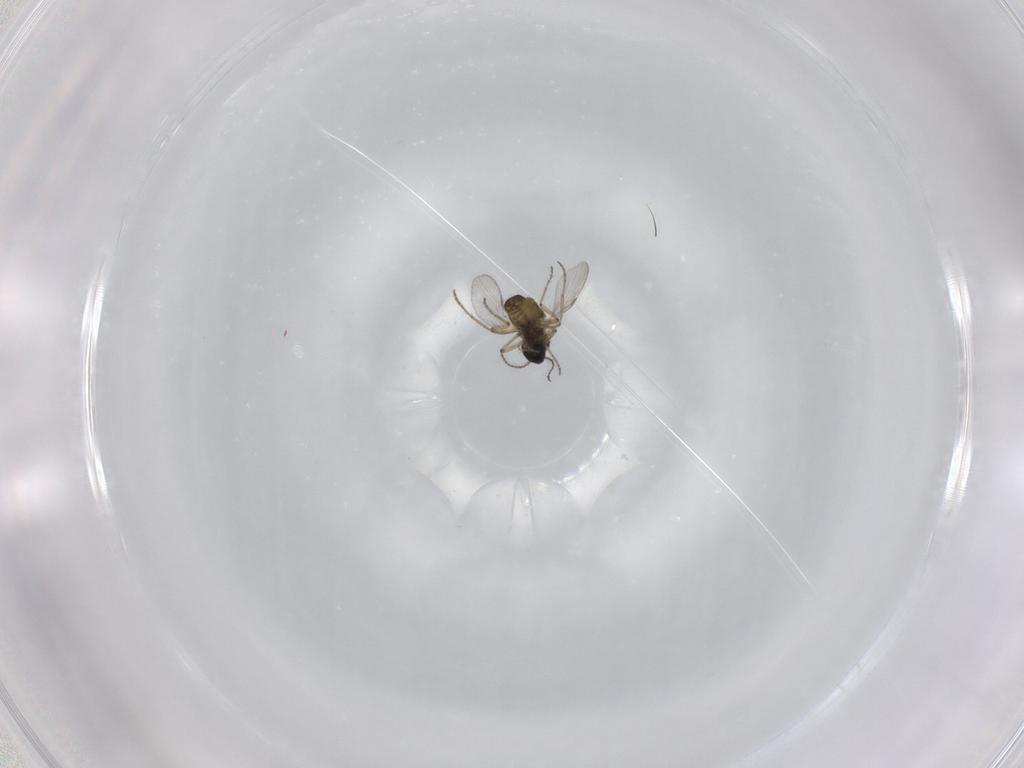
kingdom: Animalia
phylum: Arthropoda
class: Insecta
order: Diptera
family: Ceratopogonidae
